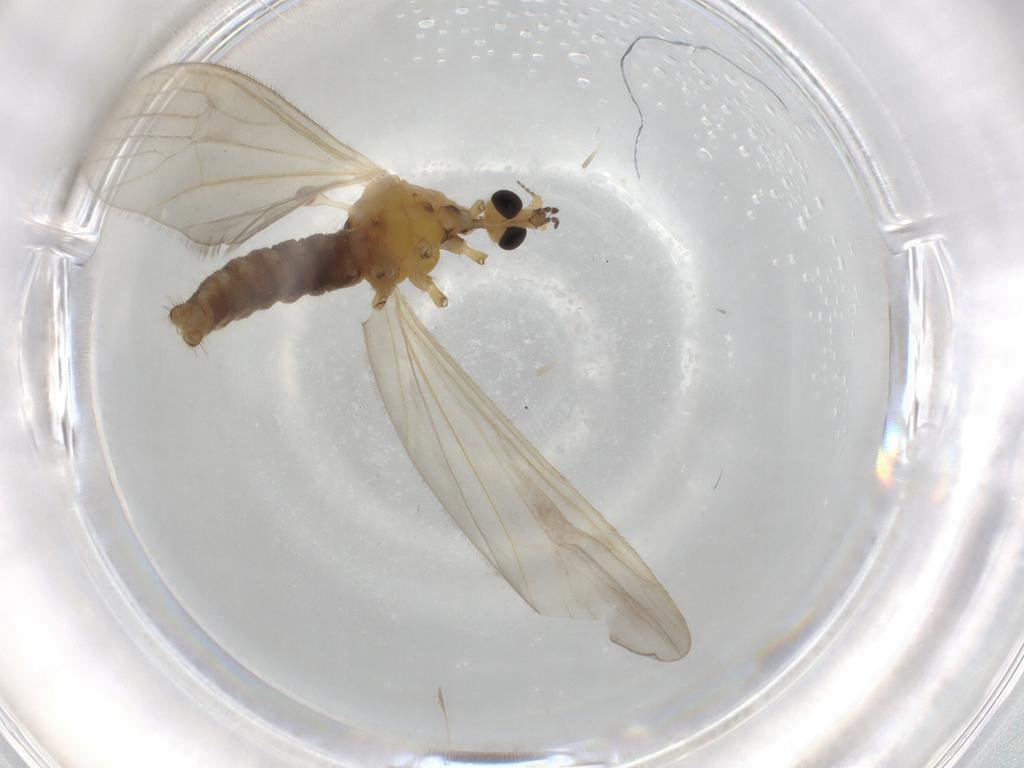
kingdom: Animalia
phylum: Arthropoda
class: Insecta
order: Diptera
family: Limoniidae
